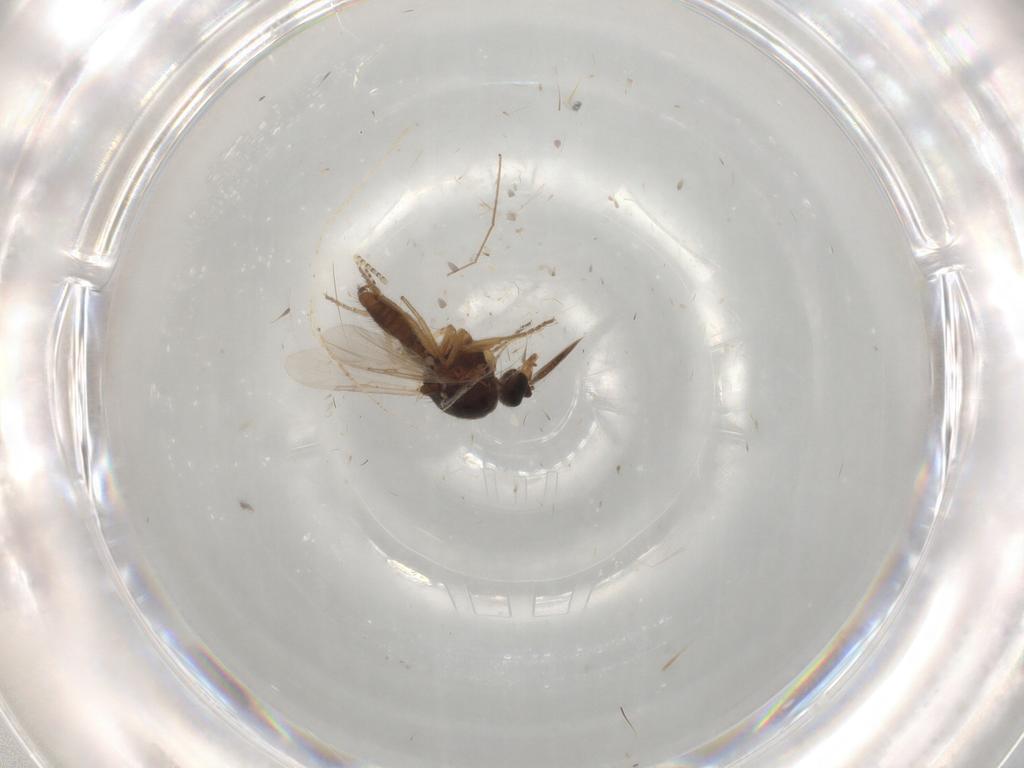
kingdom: Animalia
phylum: Arthropoda
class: Insecta
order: Diptera
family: Ceratopogonidae
